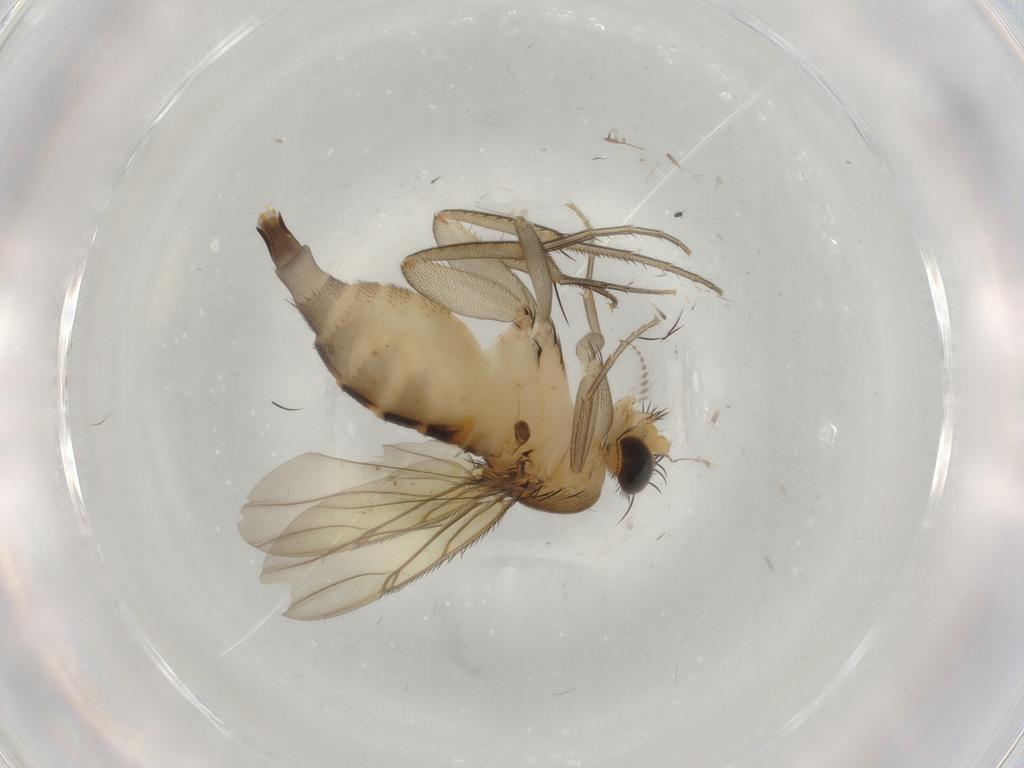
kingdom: Animalia
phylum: Arthropoda
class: Insecta
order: Diptera
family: Phoridae
